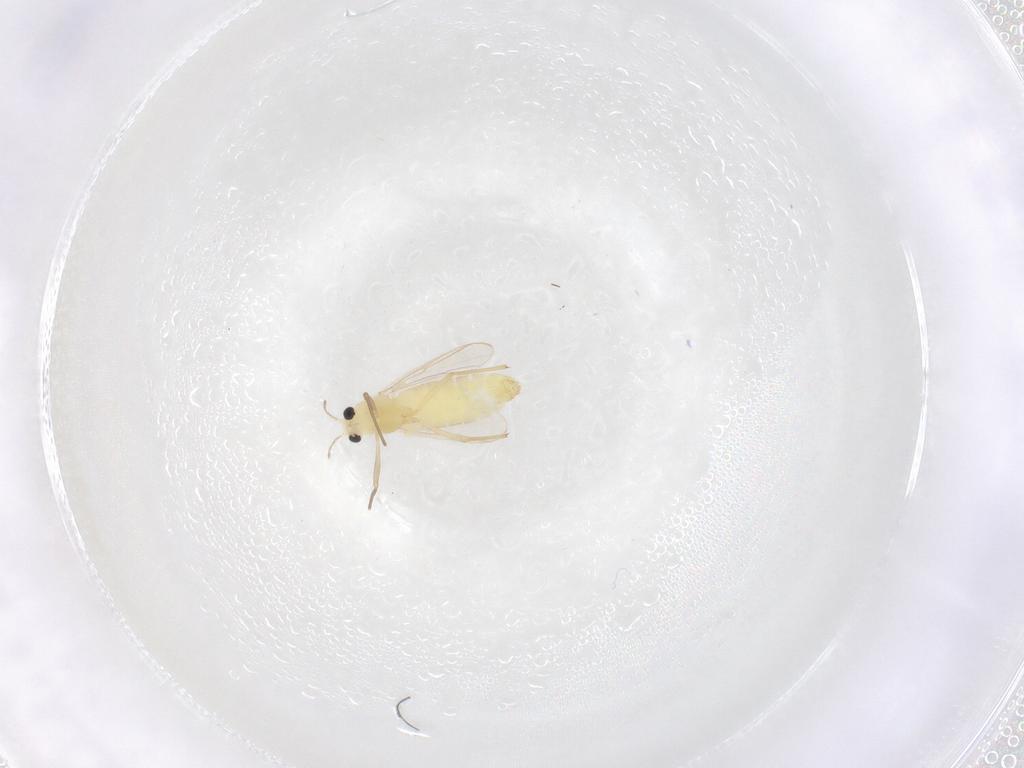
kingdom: Animalia
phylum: Arthropoda
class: Insecta
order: Diptera
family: Chironomidae
